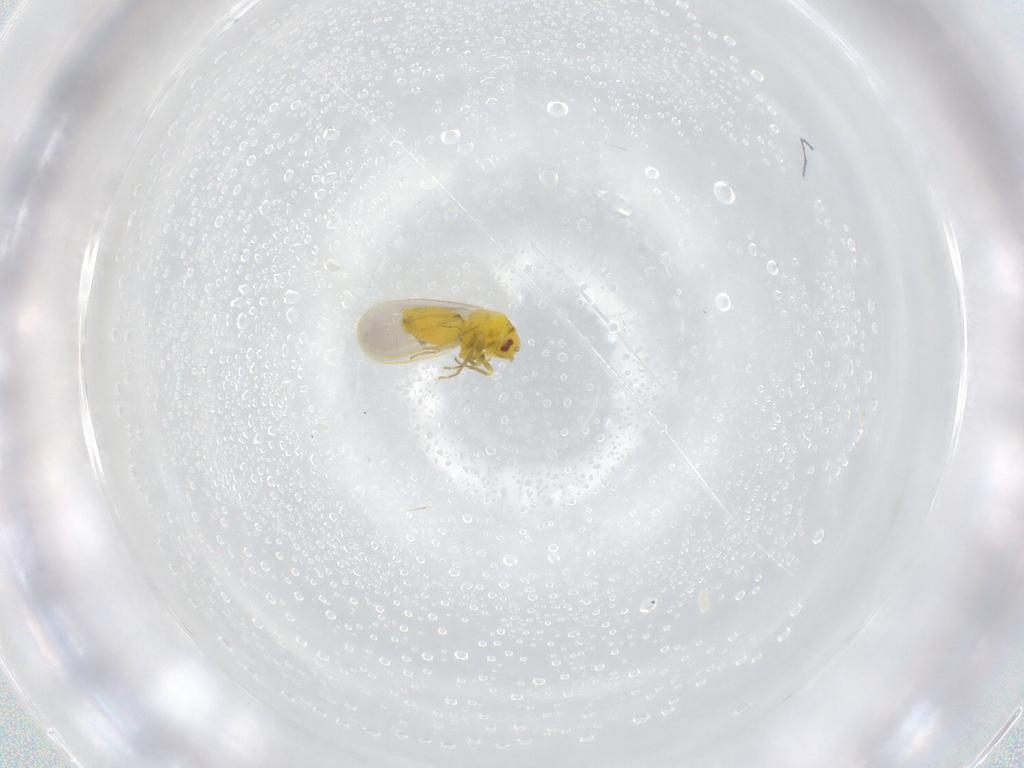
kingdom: Animalia
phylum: Arthropoda
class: Insecta
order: Hemiptera
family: Aleyrodidae
